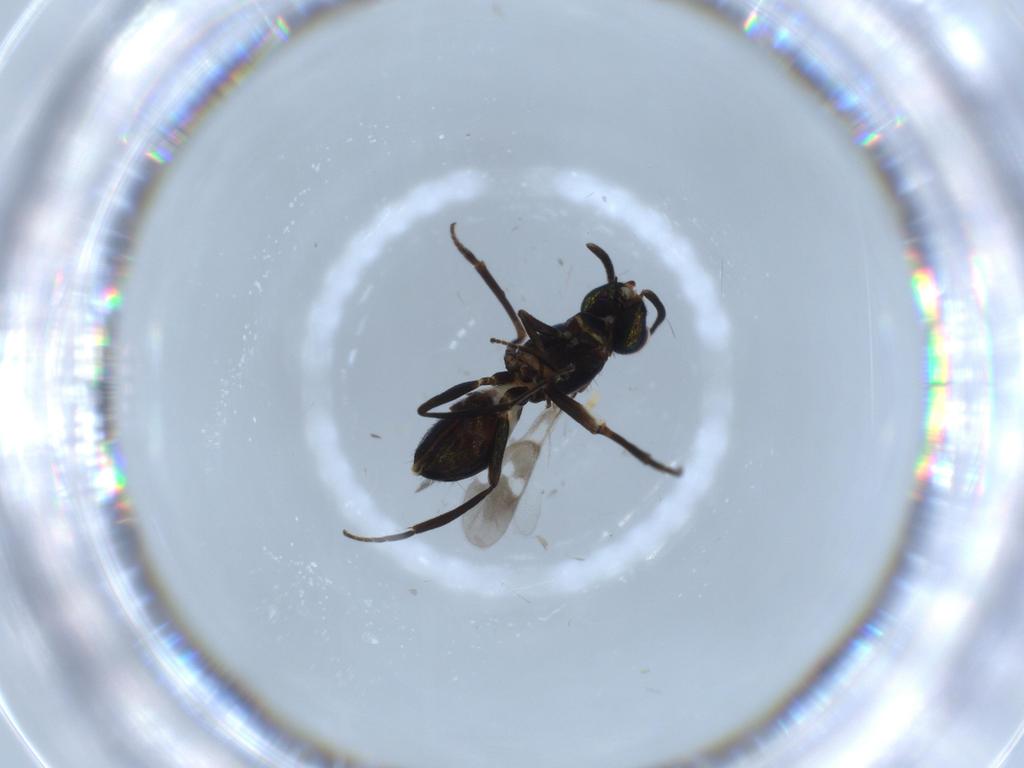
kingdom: Animalia
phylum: Arthropoda
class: Insecta
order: Hymenoptera
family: Eupelmidae
